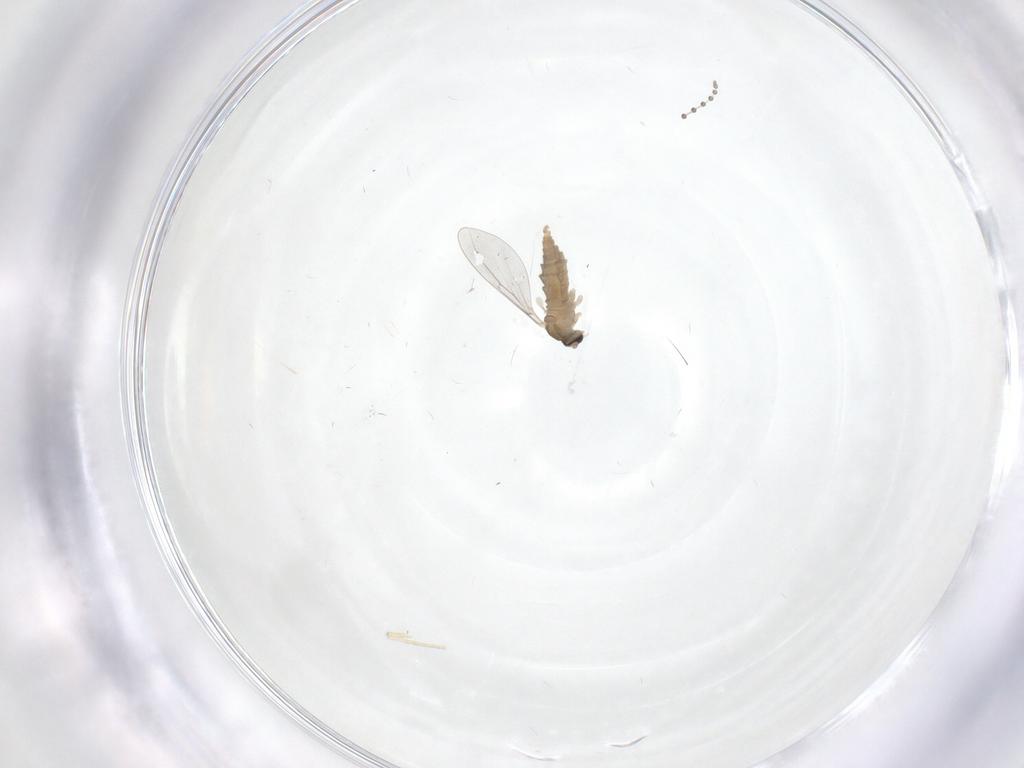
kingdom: Animalia
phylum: Arthropoda
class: Insecta
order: Diptera
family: Cecidomyiidae
